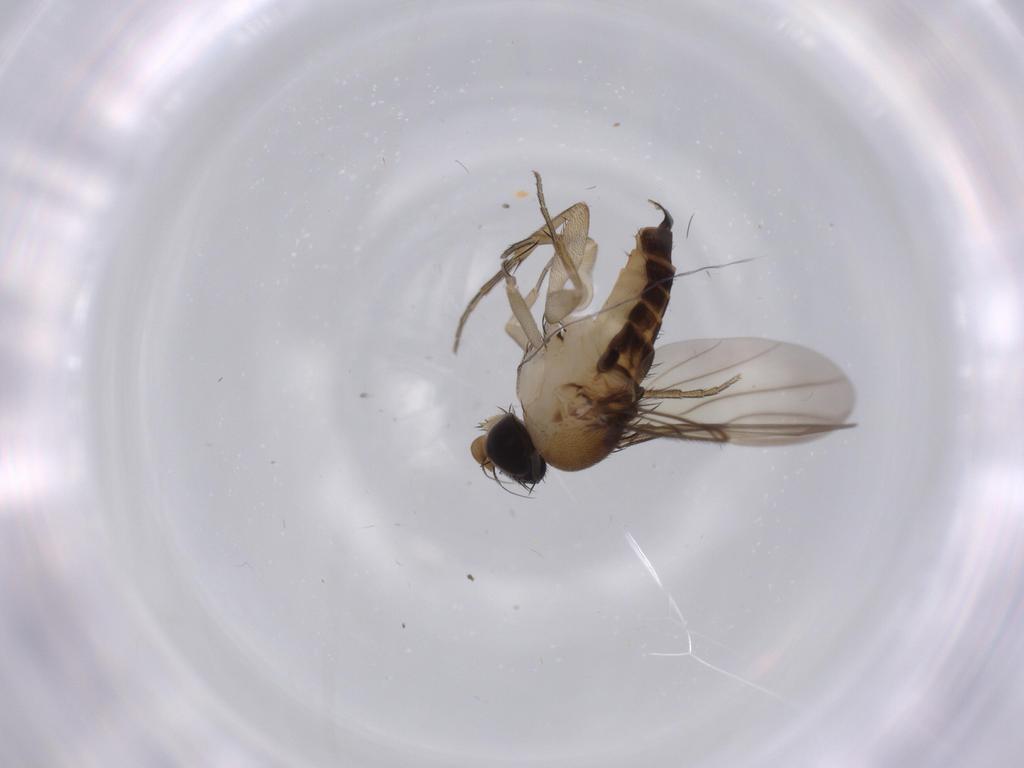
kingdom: Animalia
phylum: Arthropoda
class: Insecta
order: Diptera
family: Phoridae
